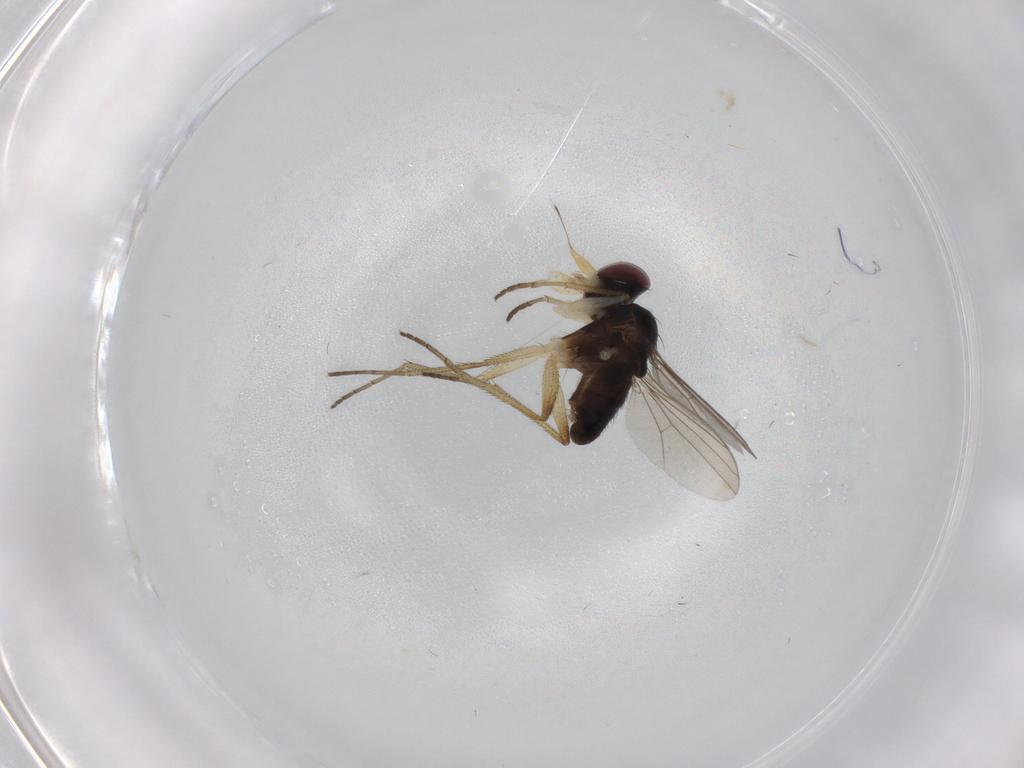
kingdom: Animalia
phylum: Arthropoda
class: Insecta
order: Diptera
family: Dolichopodidae
